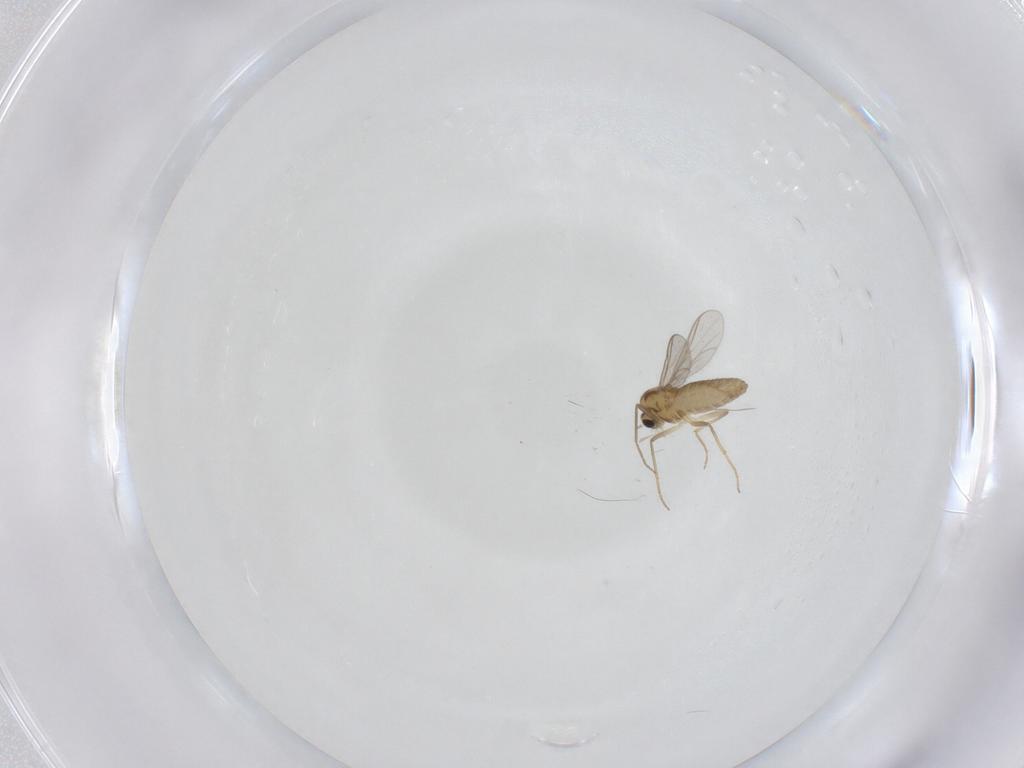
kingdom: Animalia
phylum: Arthropoda
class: Insecta
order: Diptera
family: Chironomidae
